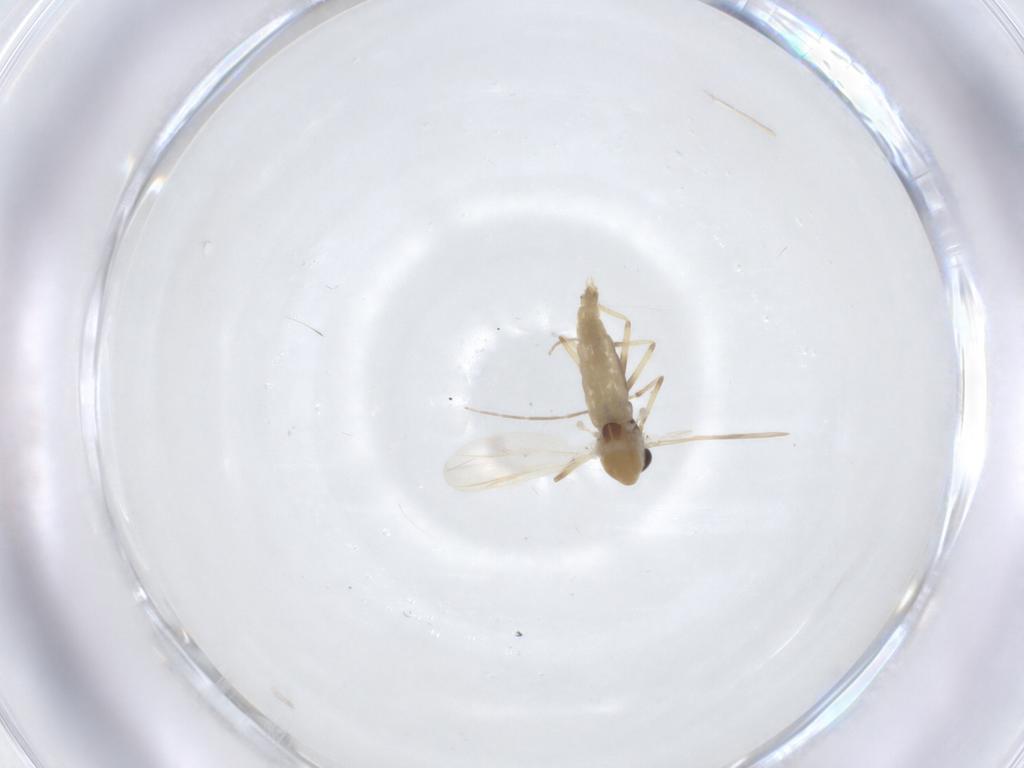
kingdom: Animalia
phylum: Arthropoda
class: Insecta
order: Diptera
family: Chironomidae
